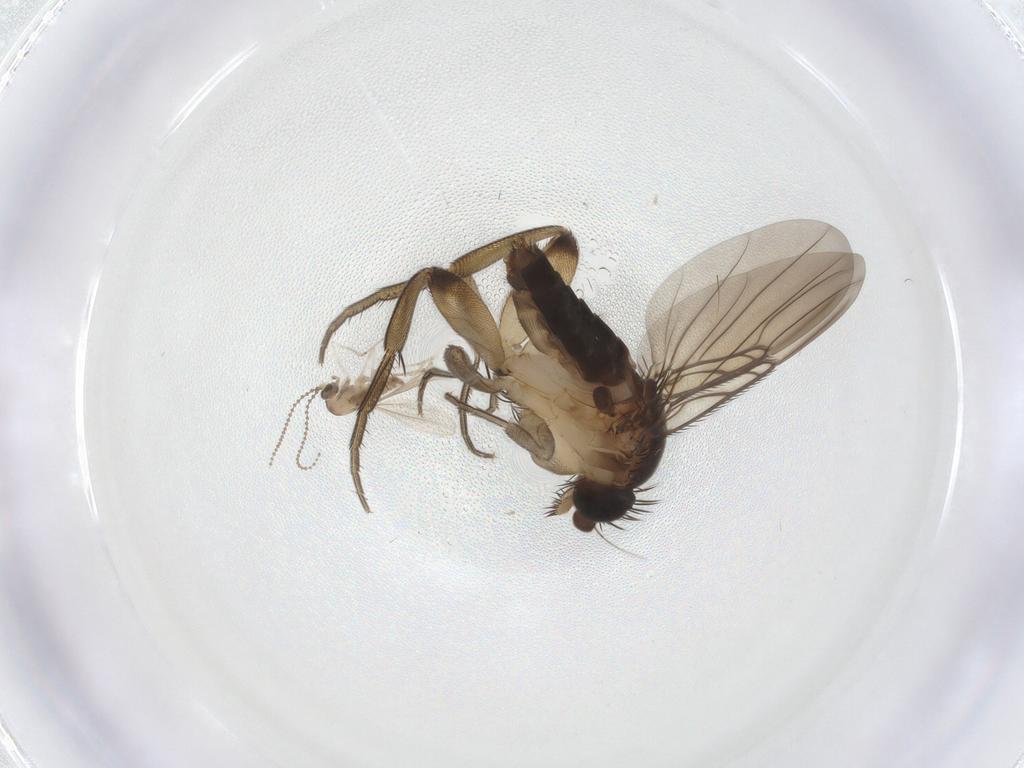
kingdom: Animalia
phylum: Arthropoda
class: Insecta
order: Diptera
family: Phoridae
